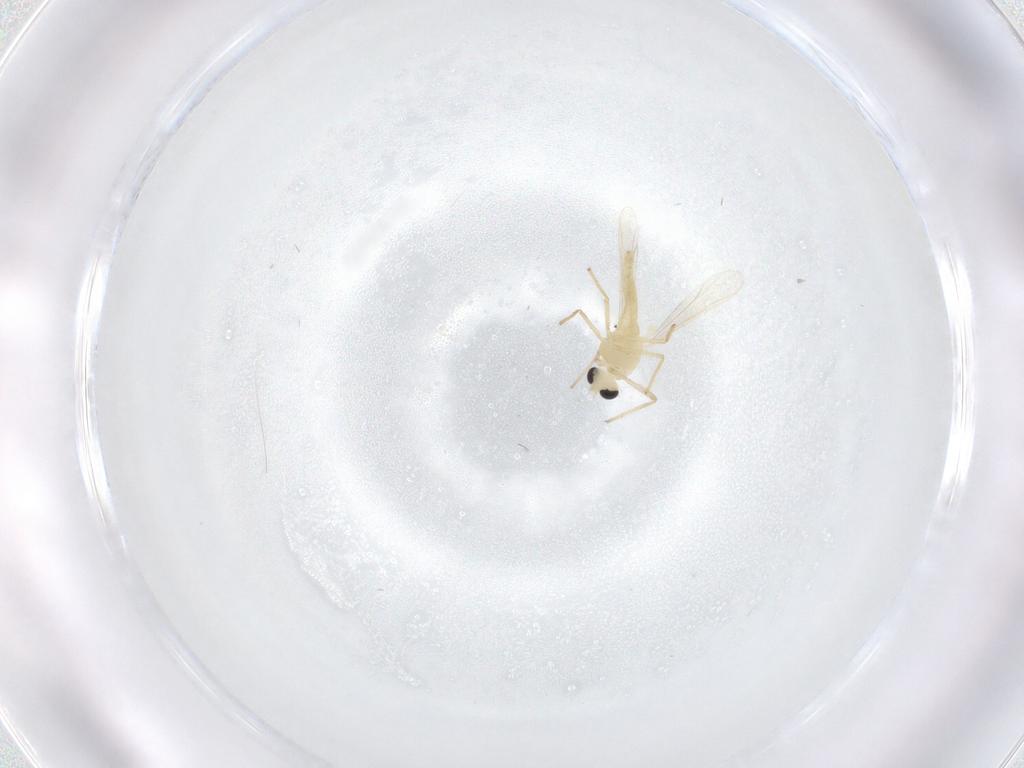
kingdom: Animalia
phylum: Arthropoda
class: Insecta
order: Diptera
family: Chironomidae
